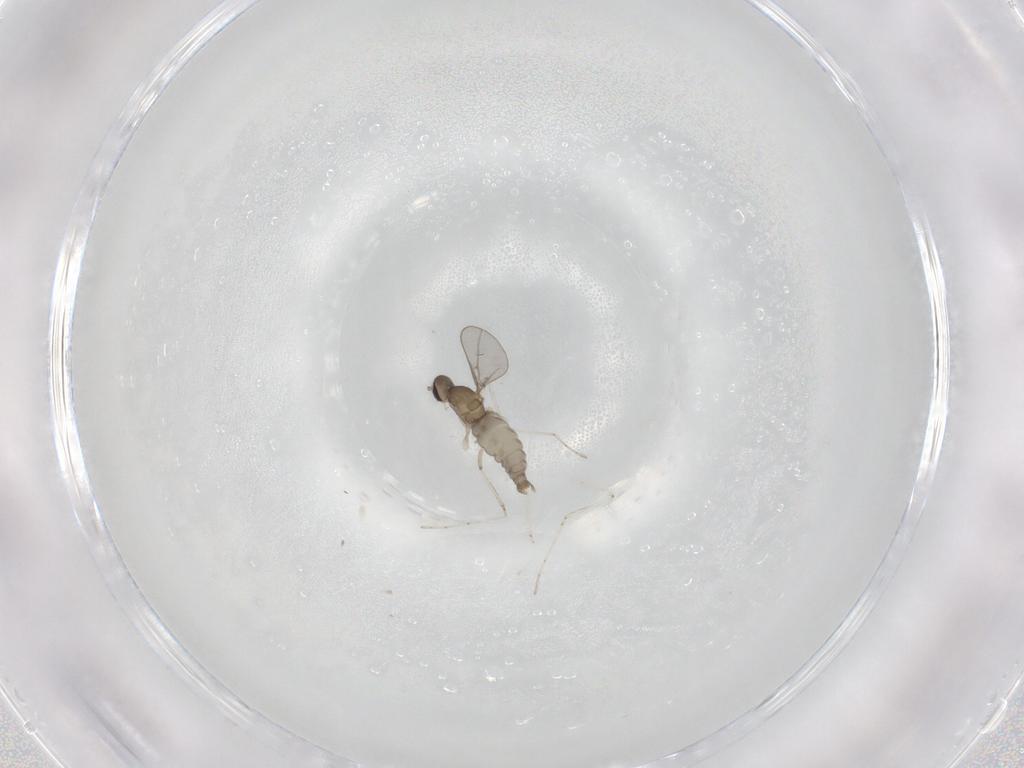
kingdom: Animalia
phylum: Arthropoda
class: Insecta
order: Diptera
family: Cecidomyiidae
